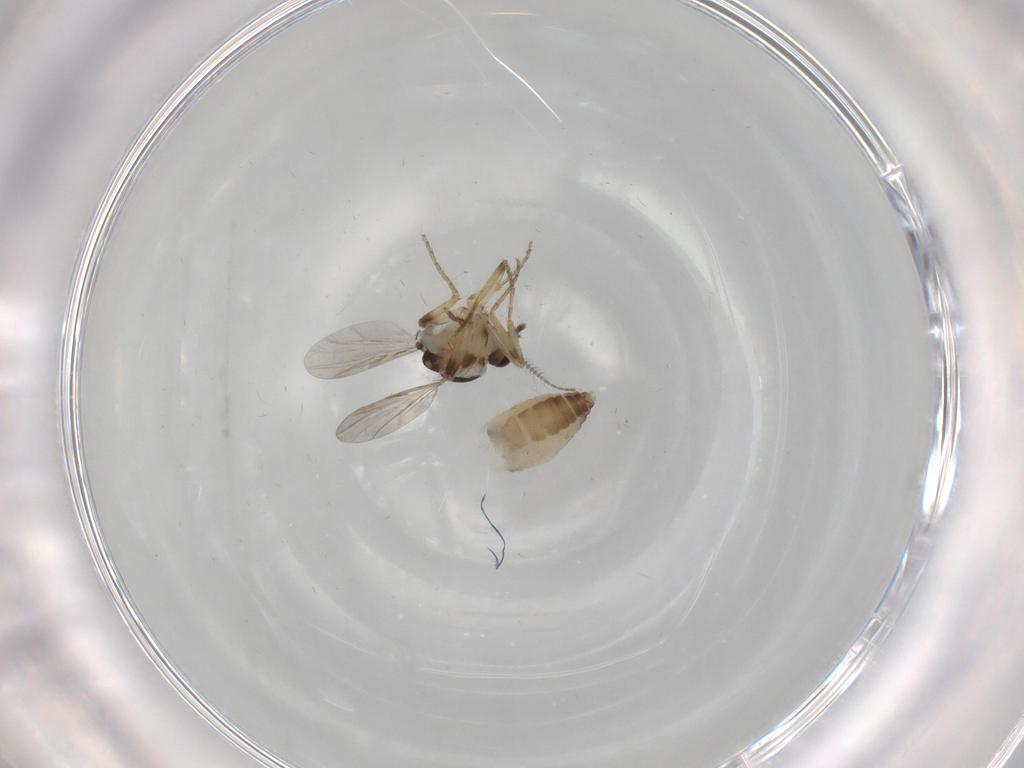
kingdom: Animalia
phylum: Arthropoda
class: Insecta
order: Diptera
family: Ceratopogonidae
